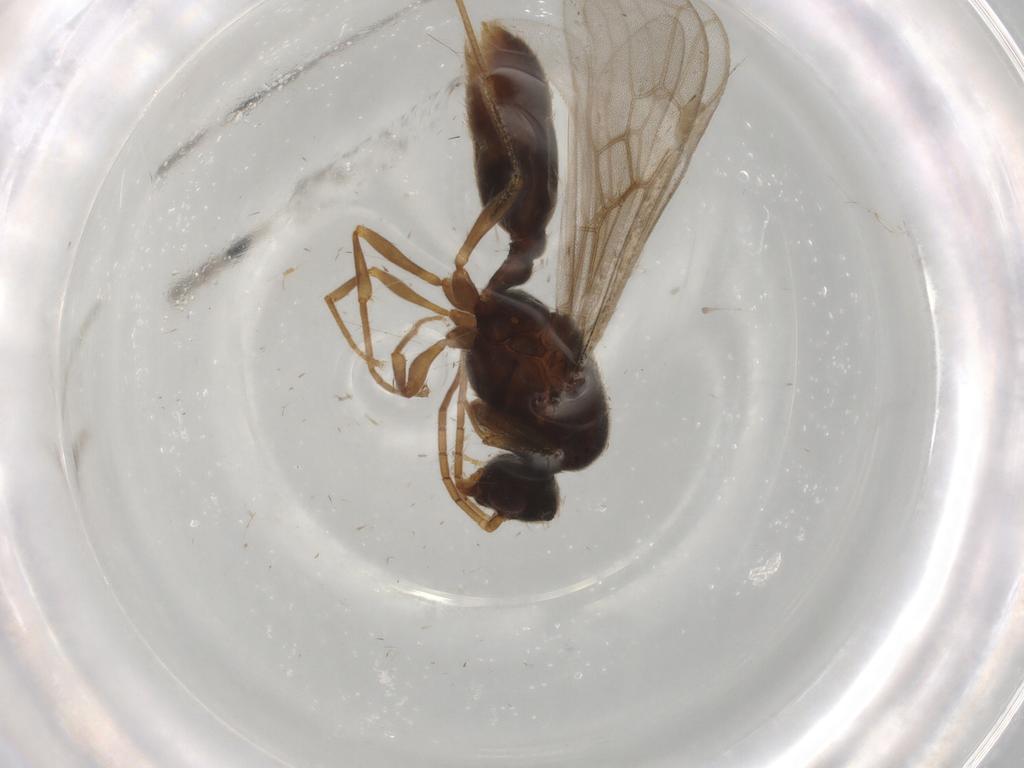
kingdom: Animalia
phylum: Arthropoda
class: Insecta
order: Hymenoptera
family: Formicidae
